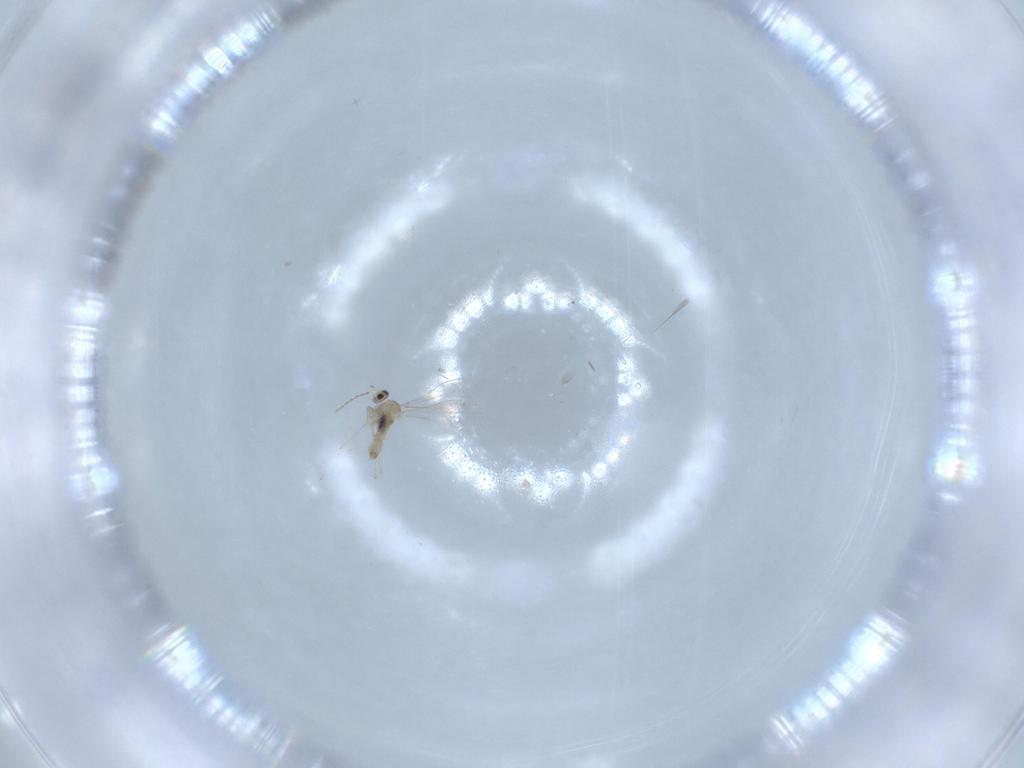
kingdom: Animalia
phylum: Arthropoda
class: Insecta
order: Diptera
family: Cecidomyiidae
